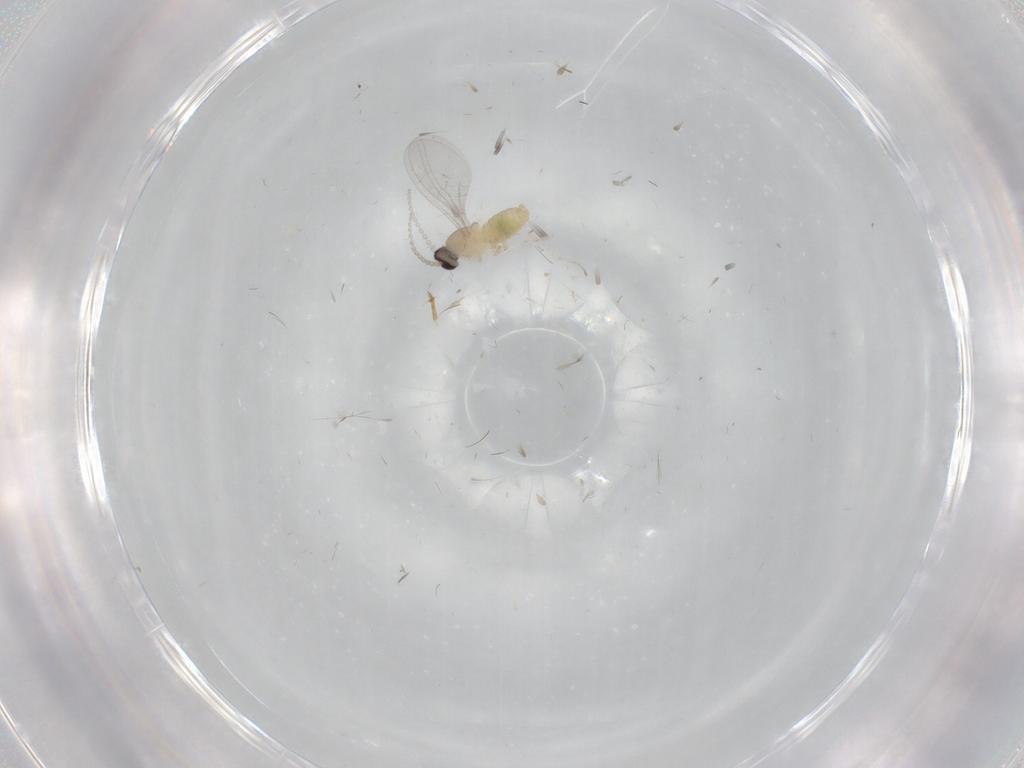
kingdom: Animalia
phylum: Arthropoda
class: Insecta
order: Diptera
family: Cecidomyiidae
